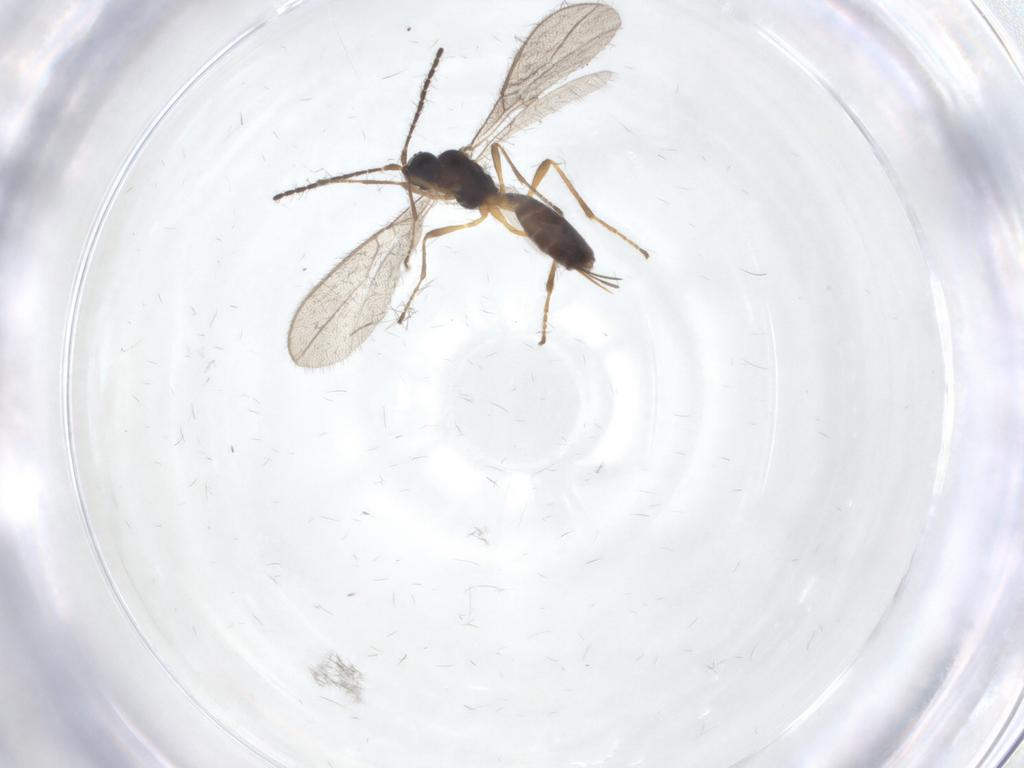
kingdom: Animalia
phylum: Arthropoda
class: Insecta
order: Hymenoptera
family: Braconidae
